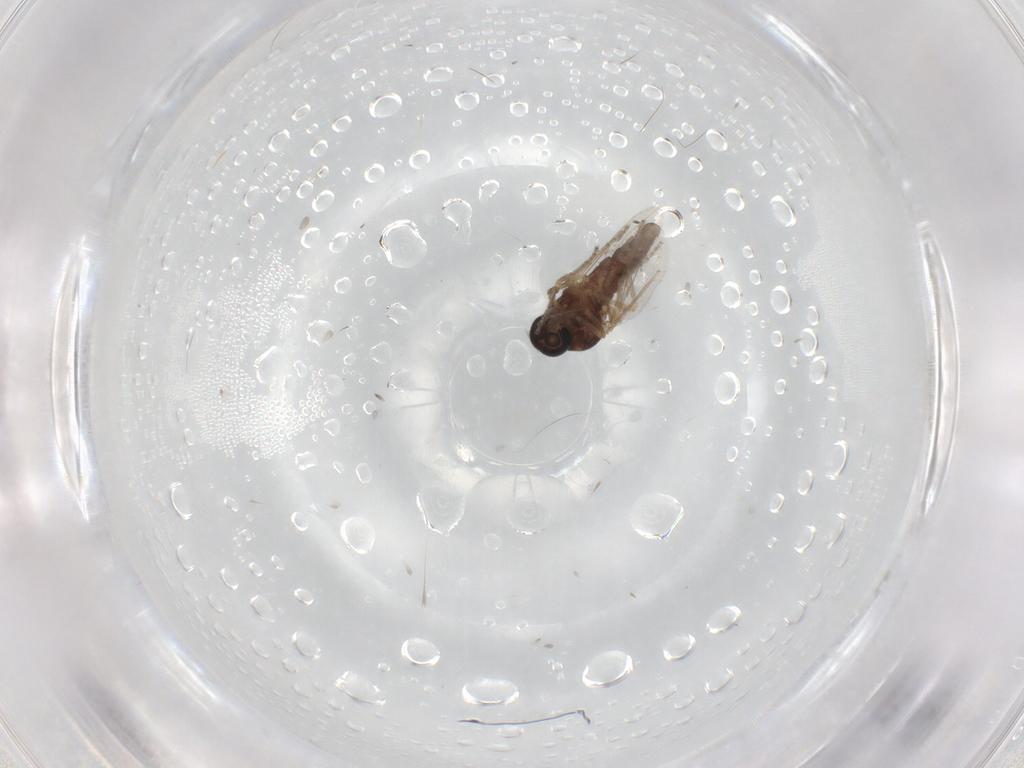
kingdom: Animalia
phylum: Arthropoda
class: Insecta
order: Diptera
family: Ceratopogonidae
